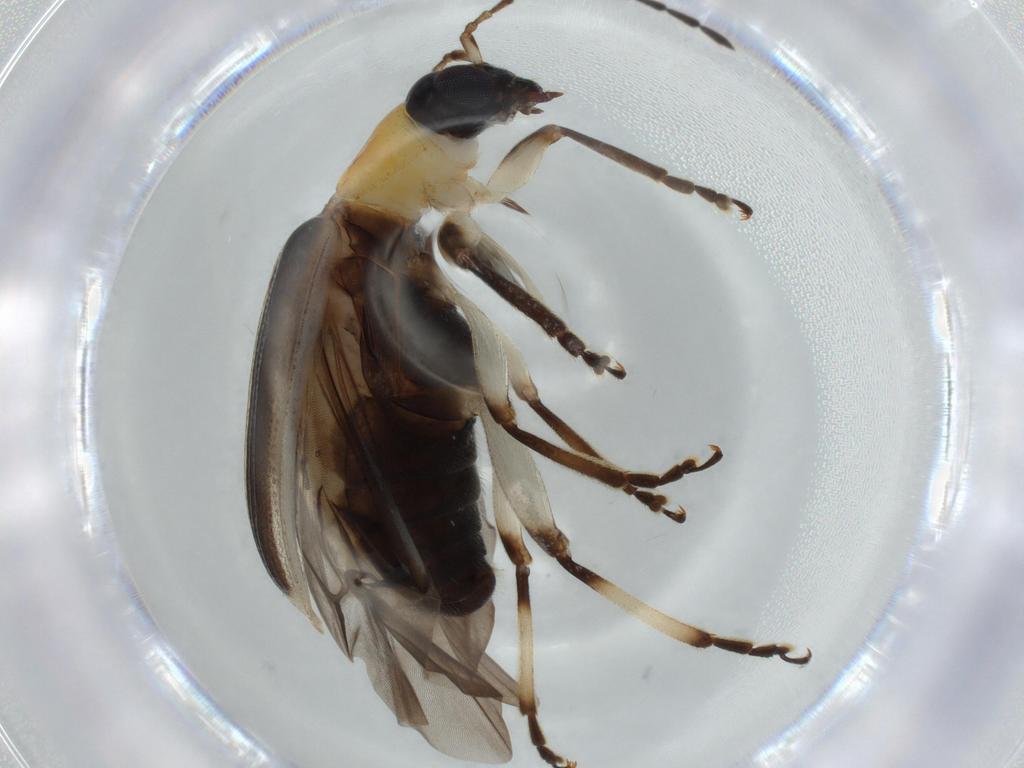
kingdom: Animalia
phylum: Arthropoda
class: Insecta
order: Coleoptera
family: Chrysomelidae
